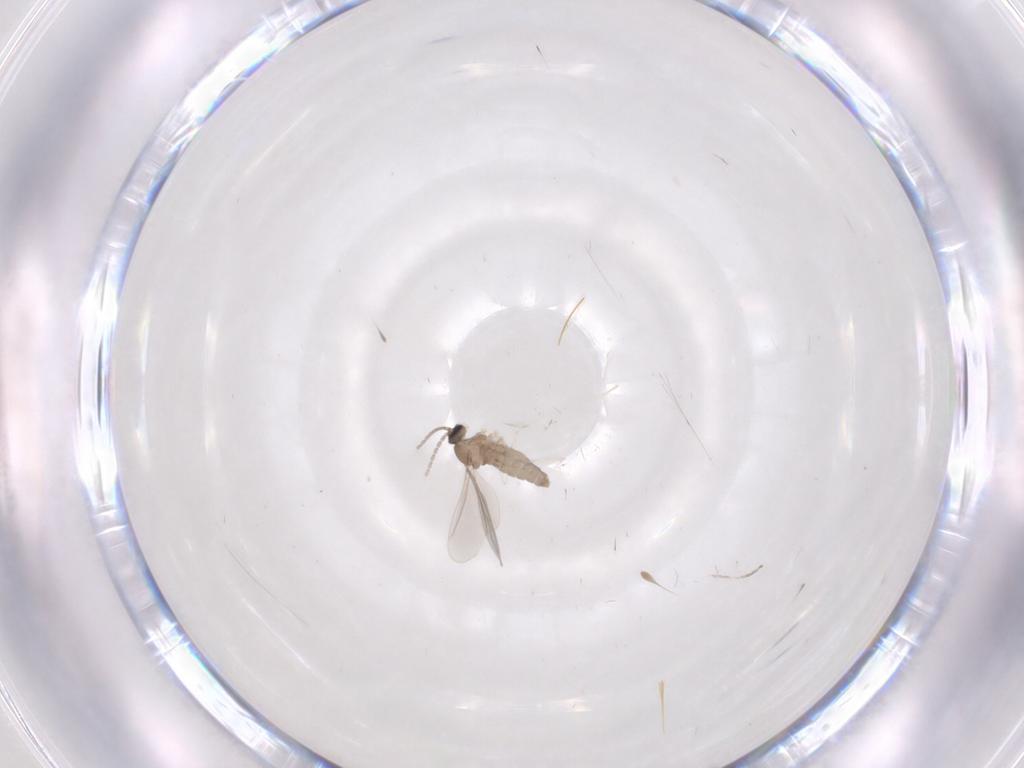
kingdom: Animalia
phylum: Arthropoda
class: Insecta
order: Diptera
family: Cecidomyiidae
